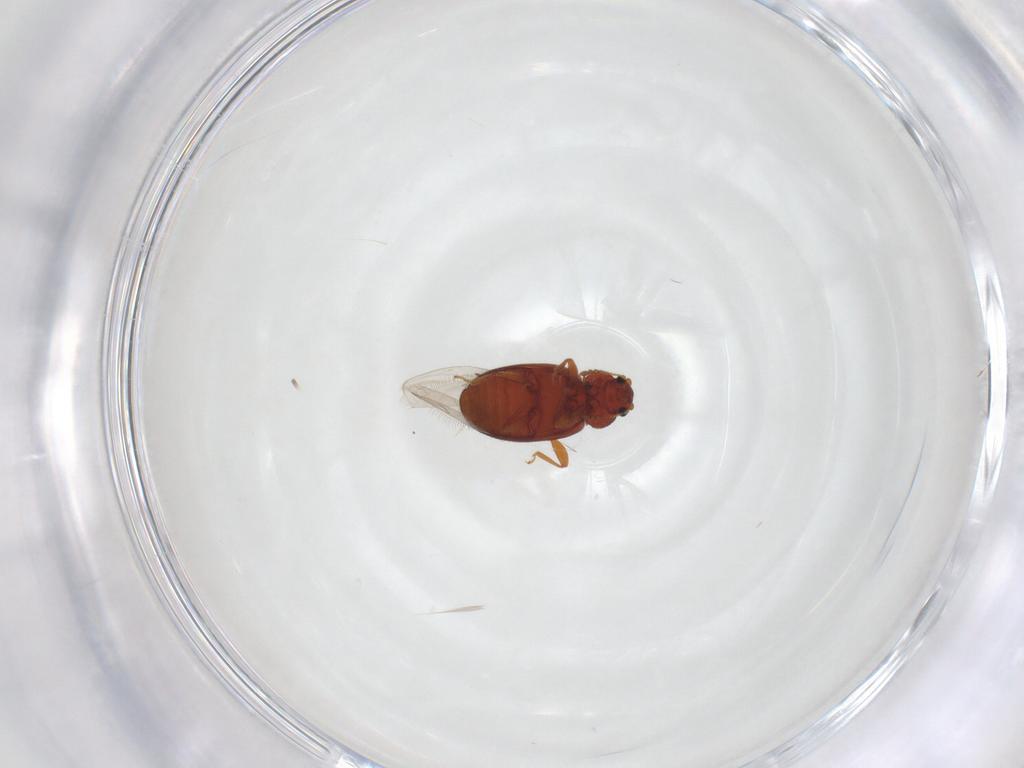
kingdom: Animalia
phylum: Arthropoda
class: Insecta
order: Coleoptera
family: Latridiidae
